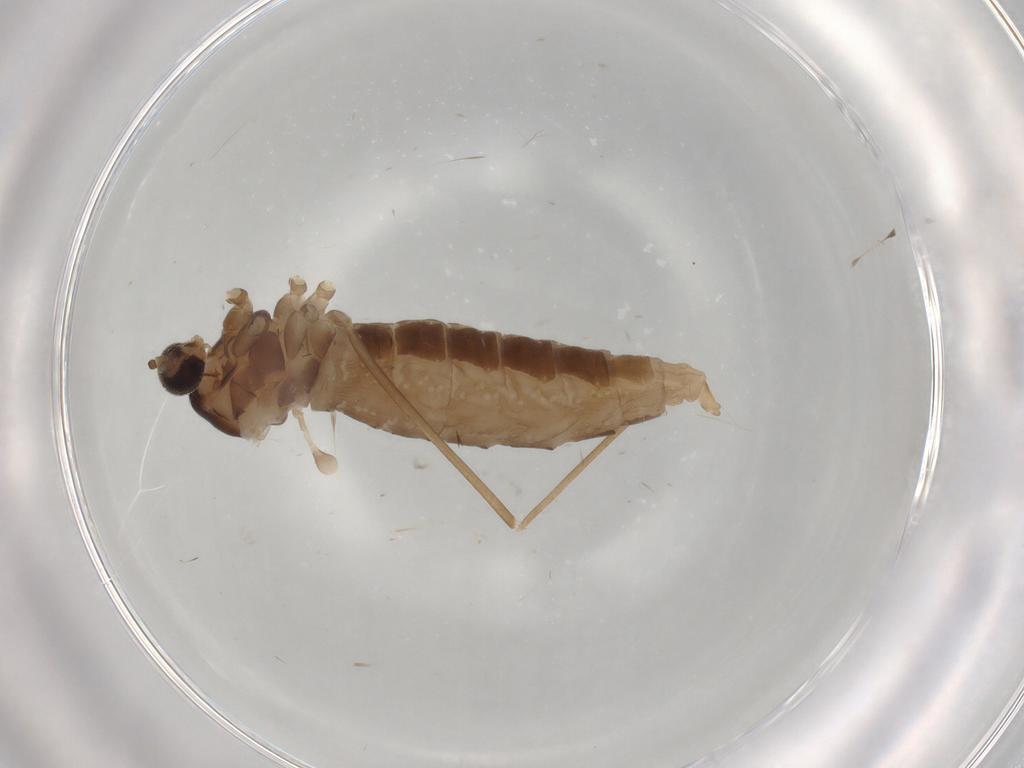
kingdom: Animalia
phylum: Arthropoda
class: Insecta
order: Diptera
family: Cecidomyiidae
